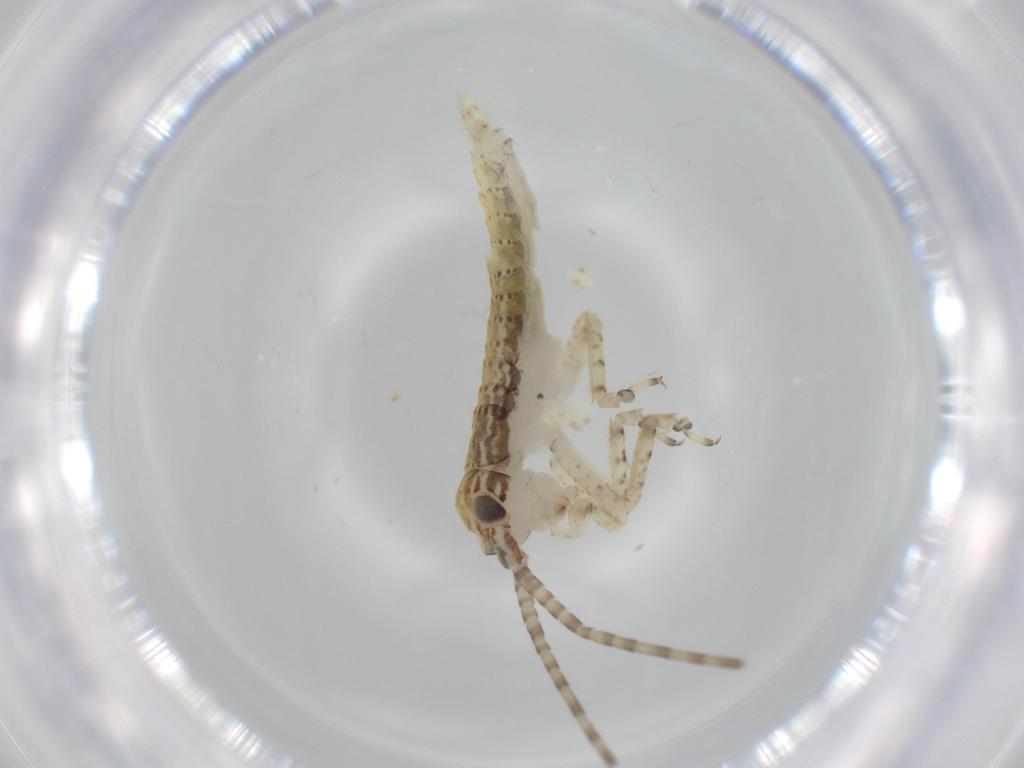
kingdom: Animalia
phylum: Arthropoda
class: Insecta
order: Orthoptera
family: Gryllidae
